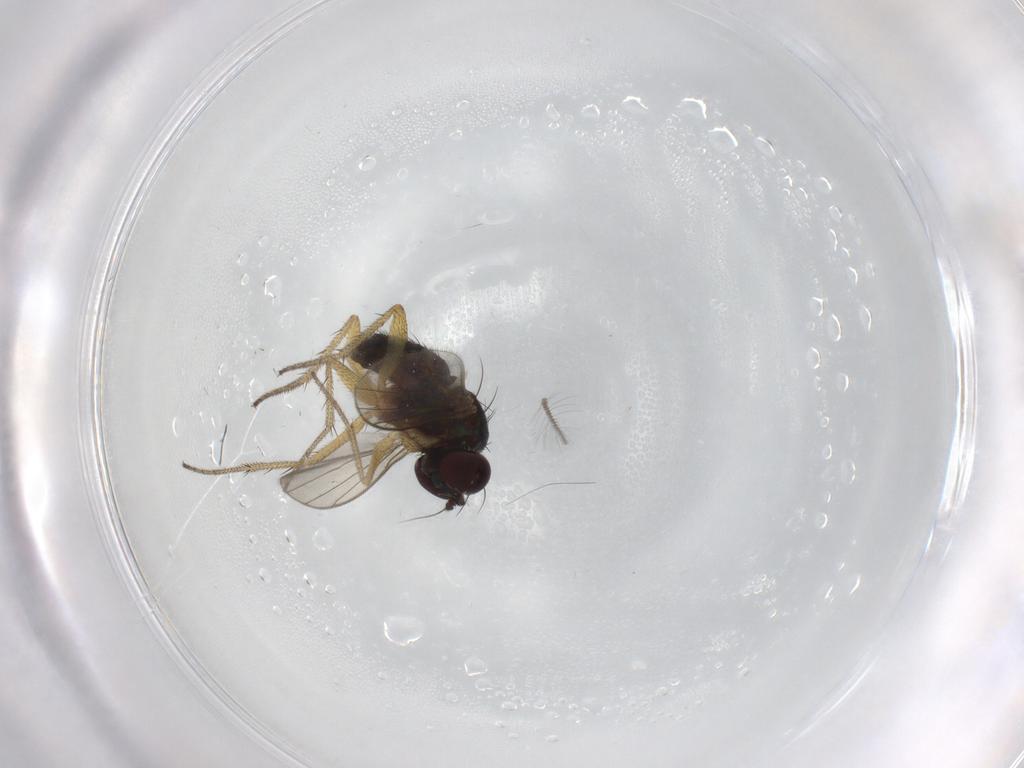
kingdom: Animalia
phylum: Arthropoda
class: Insecta
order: Diptera
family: Chironomidae
